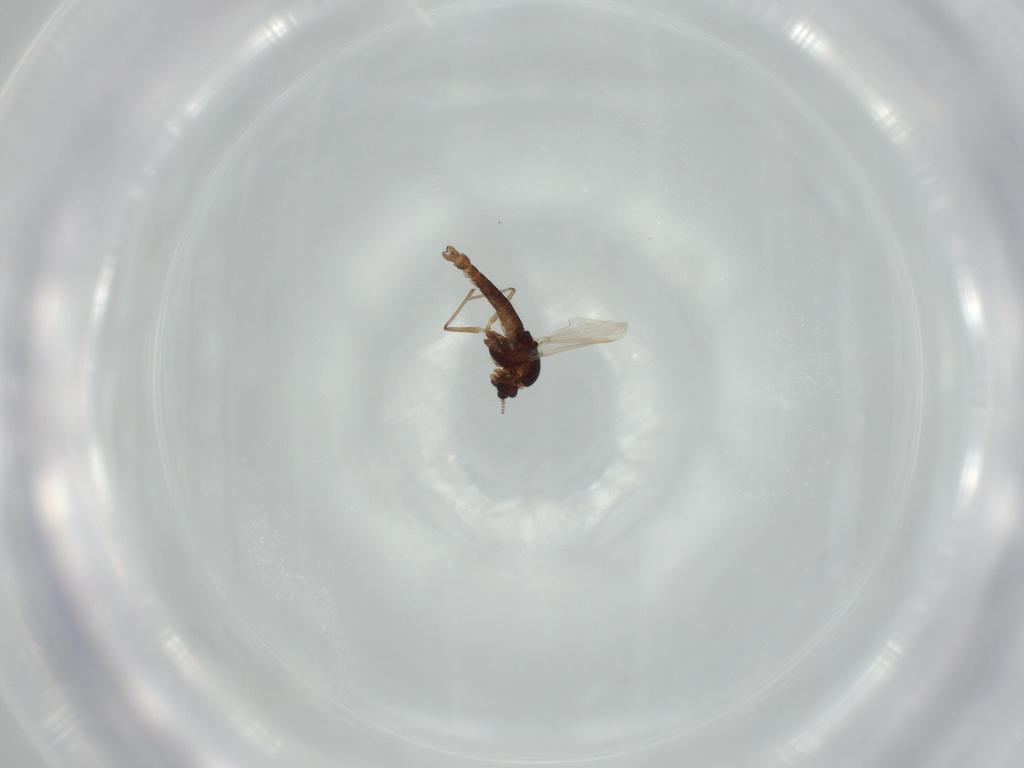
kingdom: Animalia
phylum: Arthropoda
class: Insecta
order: Diptera
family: Chironomidae
